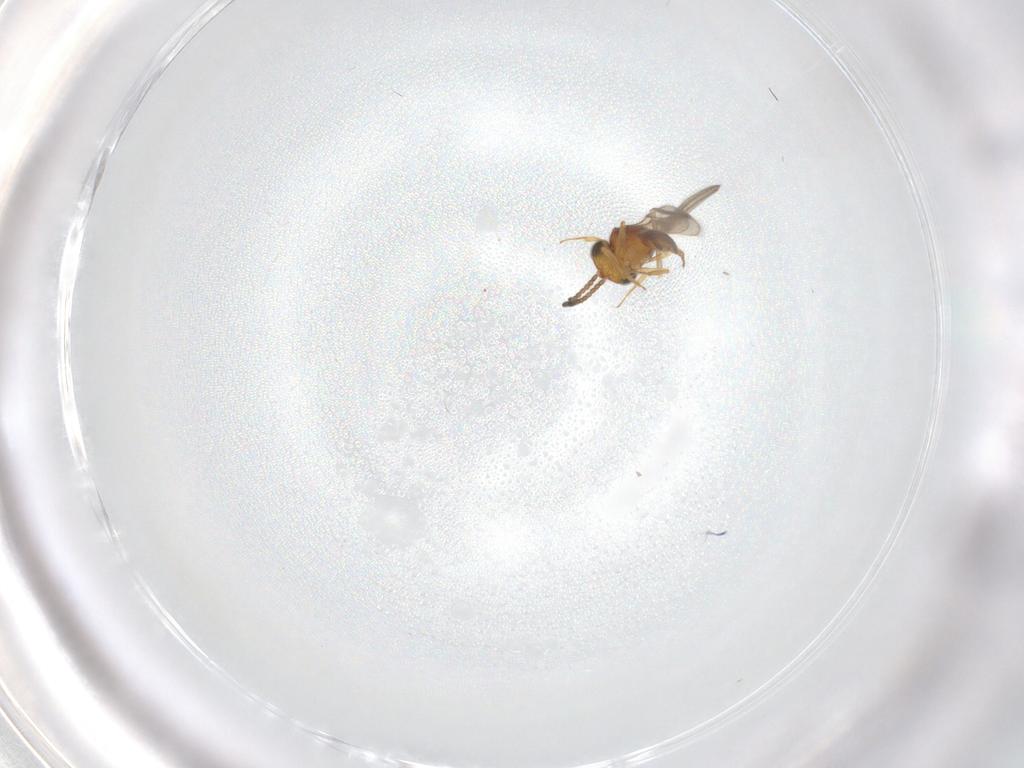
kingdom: Animalia
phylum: Arthropoda
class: Insecta
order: Hymenoptera
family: Scelionidae
